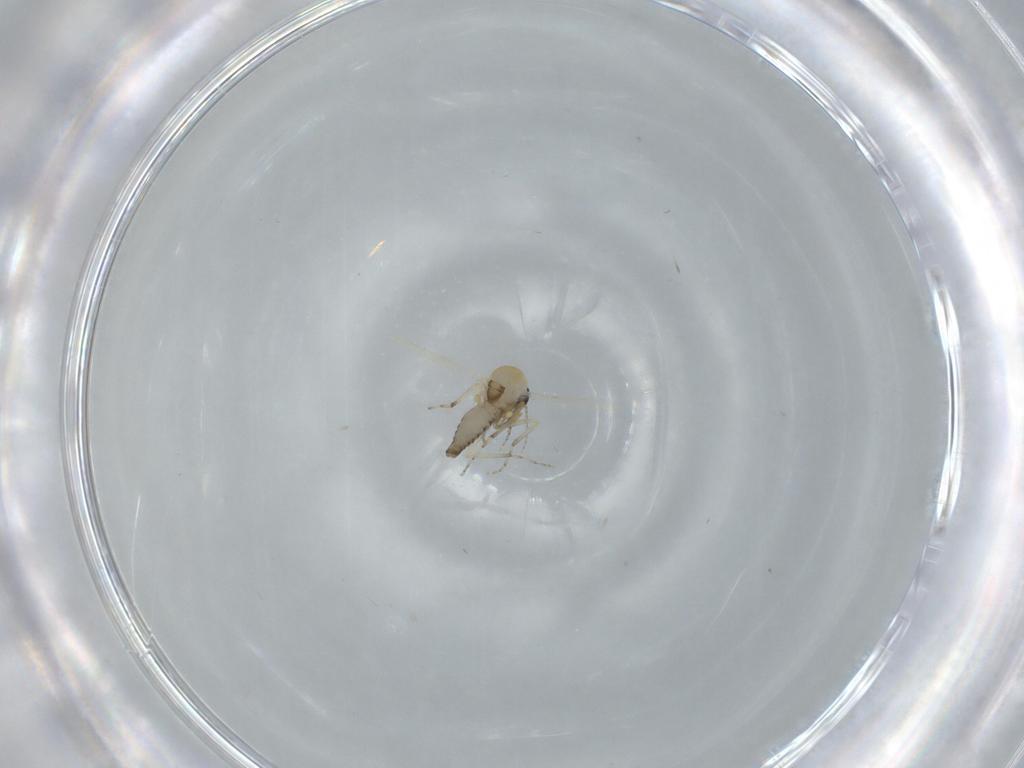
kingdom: Animalia
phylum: Arthropoda
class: Insecta
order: Diptera
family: Ceratopogonidae
